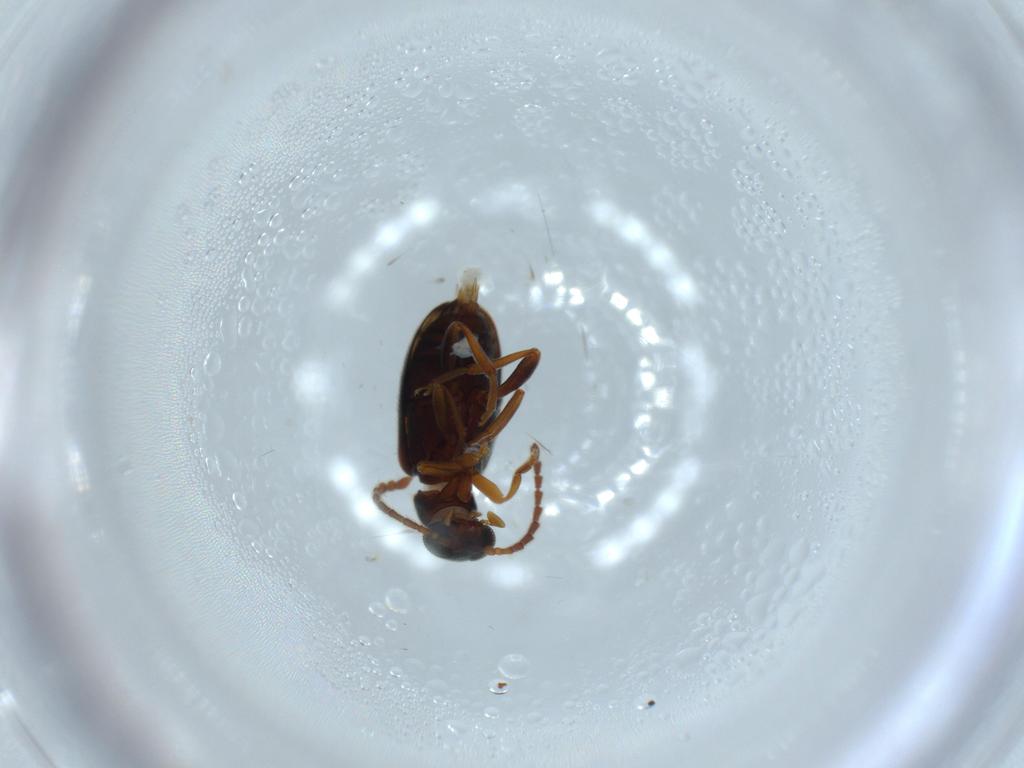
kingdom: Animalia
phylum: Arthropoda
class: Insecta
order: Coleoptera
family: Aderidae
